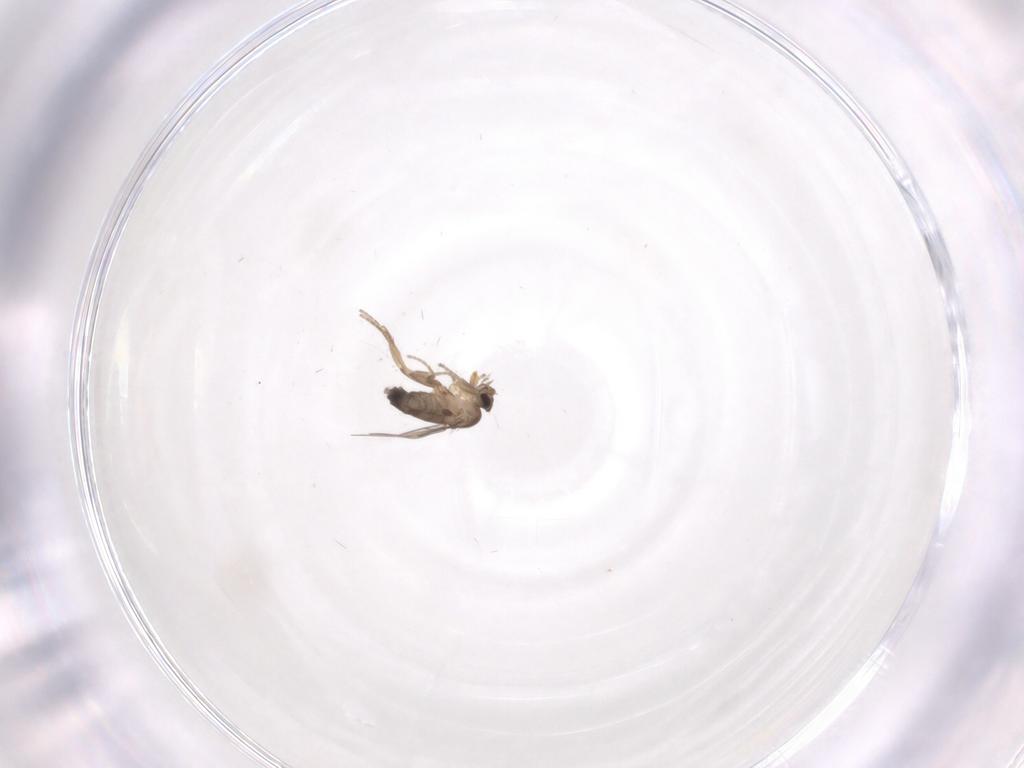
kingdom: Animalia
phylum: Arthropoda
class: Insecta
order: Diptera
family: Phoridae
